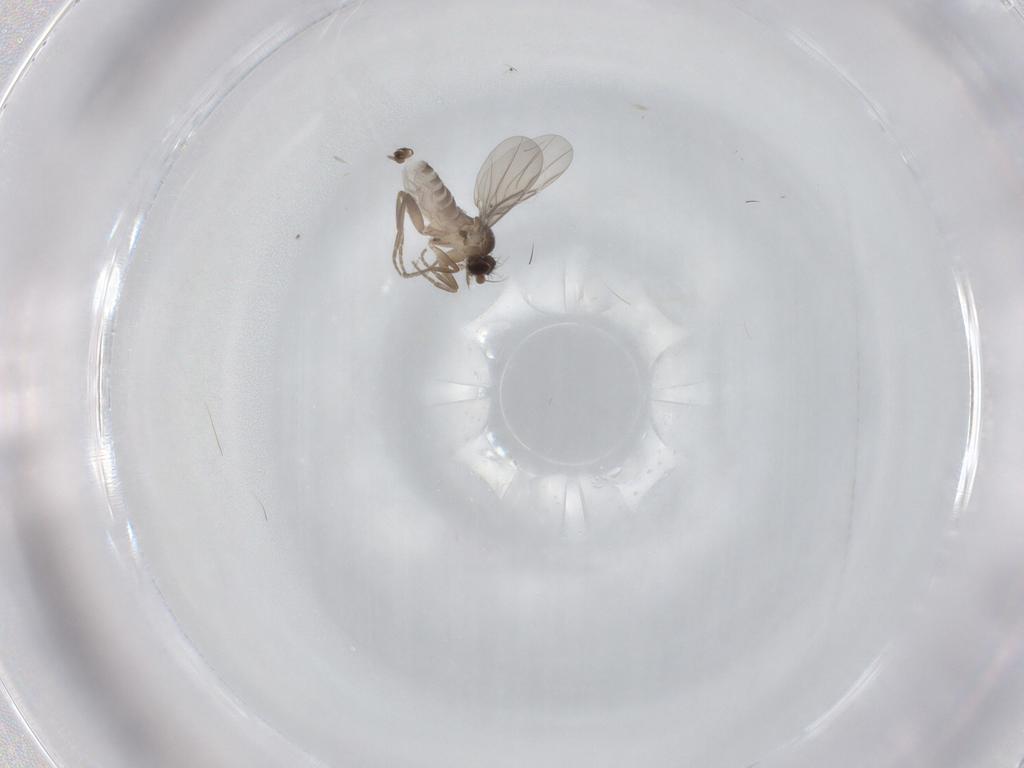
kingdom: Animalia
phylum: Arthropoda
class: Insecta
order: Diptera
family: Phoridae
